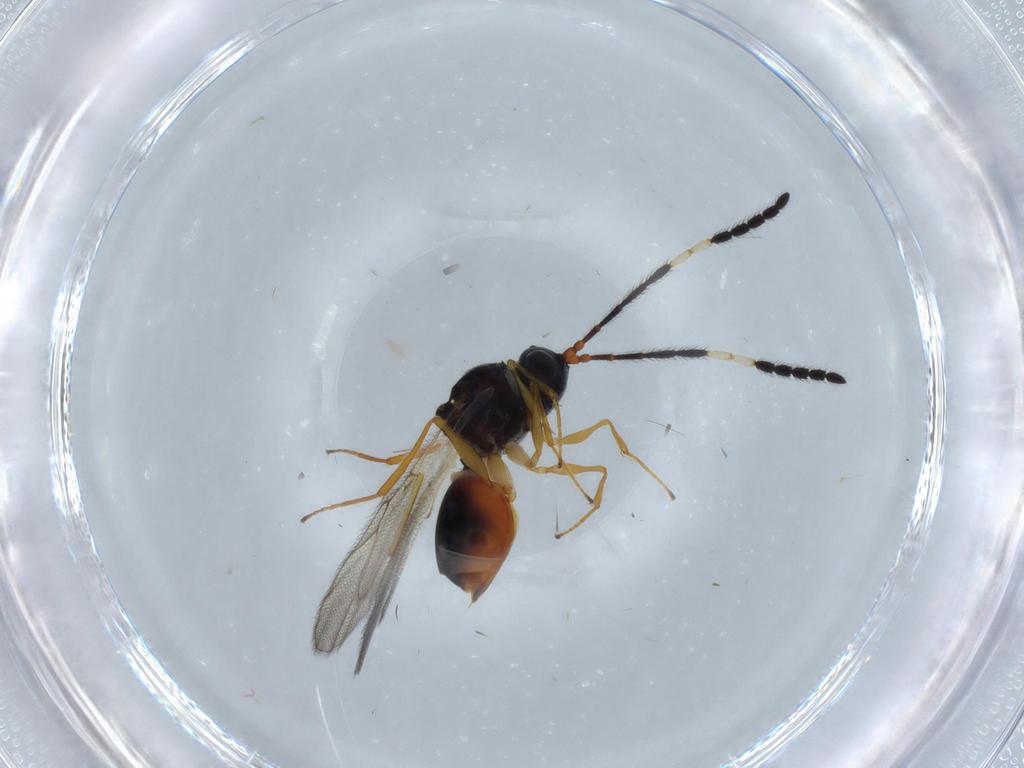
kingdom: Animalia
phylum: Arthropoda
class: Insecta
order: Hymenoptera
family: Figitidae
